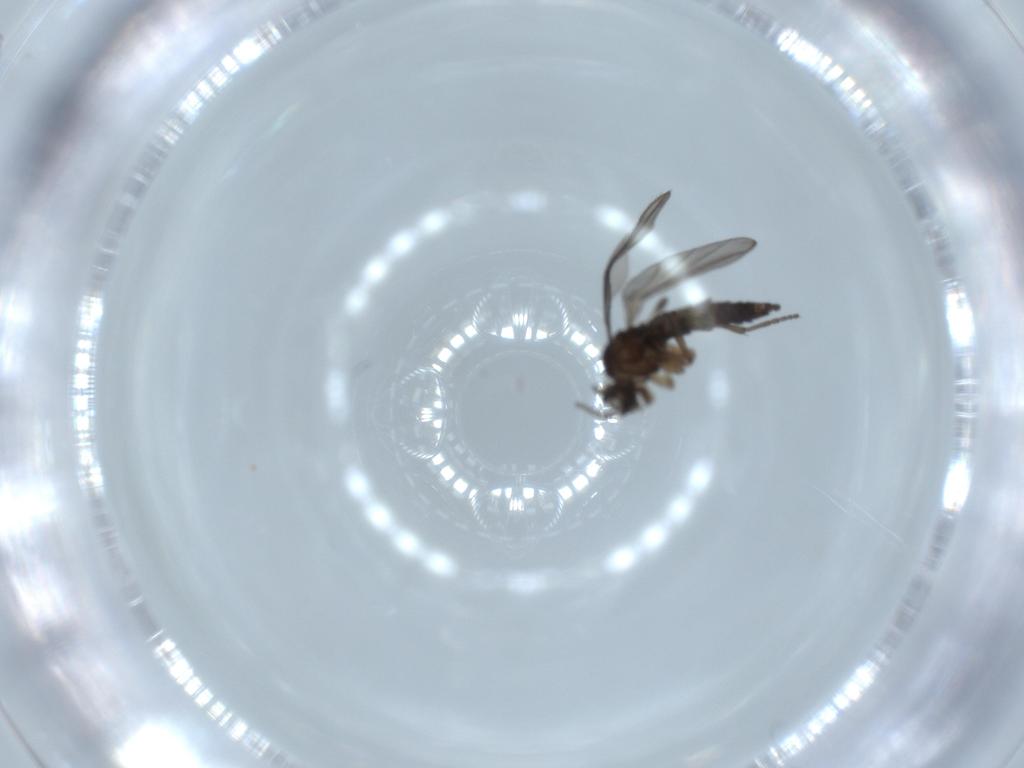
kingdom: Animalia
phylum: Arthropoda
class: Insecta
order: Diptera
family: Sciaridae
